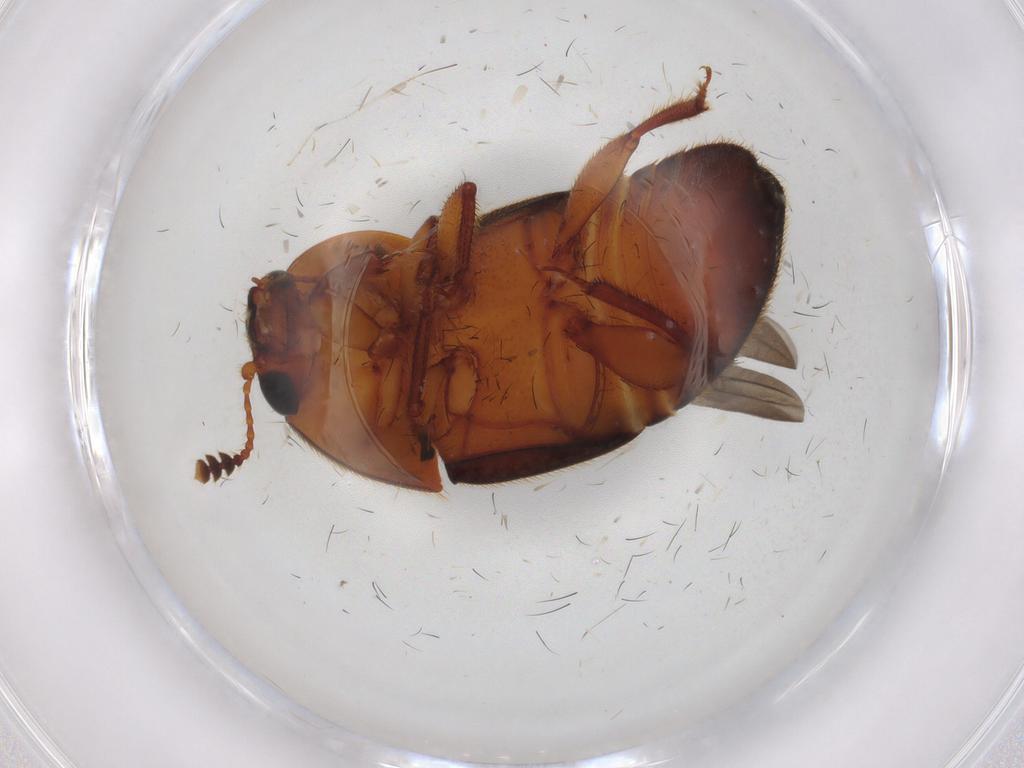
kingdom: Animalia
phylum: Arthropoda
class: Insecta
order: Coleoptera
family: Nitidulidae
